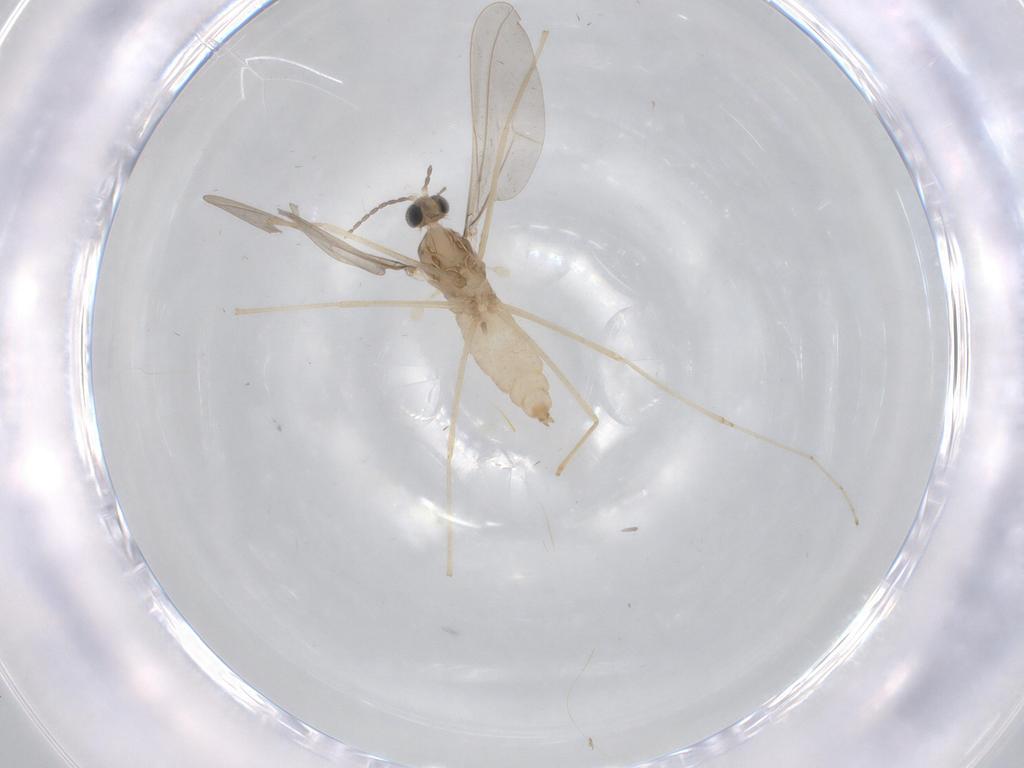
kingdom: Animalia
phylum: Arthropoda
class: Insecta
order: Diptera
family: Cecidomyiidae
